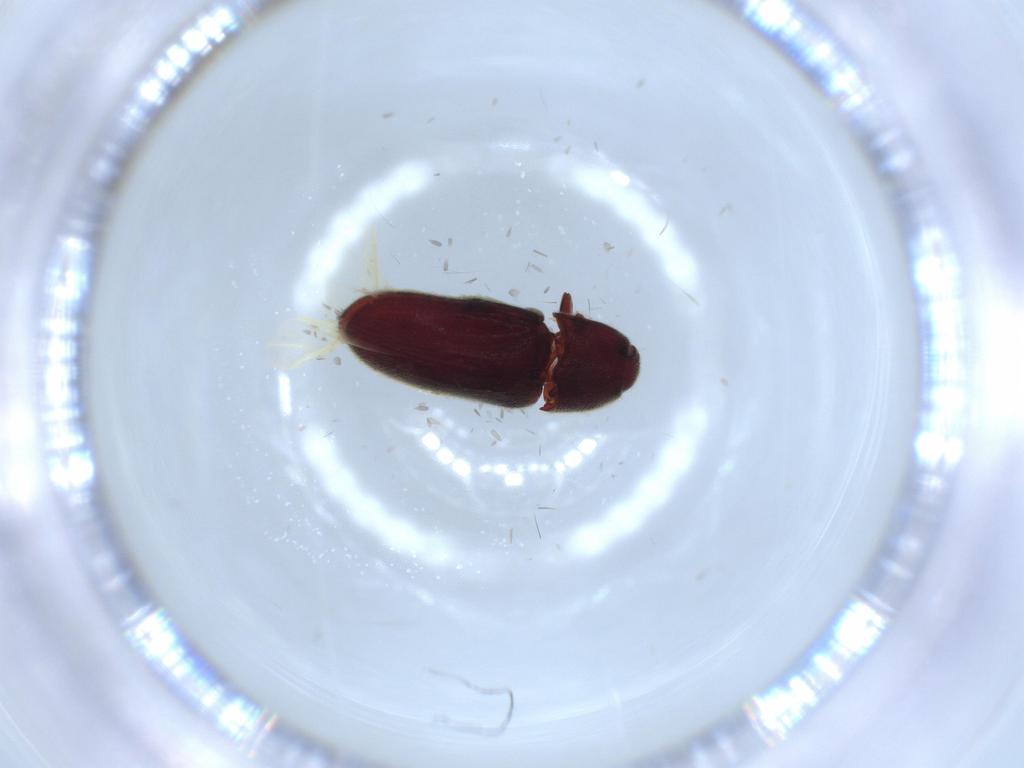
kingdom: Animalia
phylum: Arthropoda
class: Insecta
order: Coleoptera
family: Throscidae
